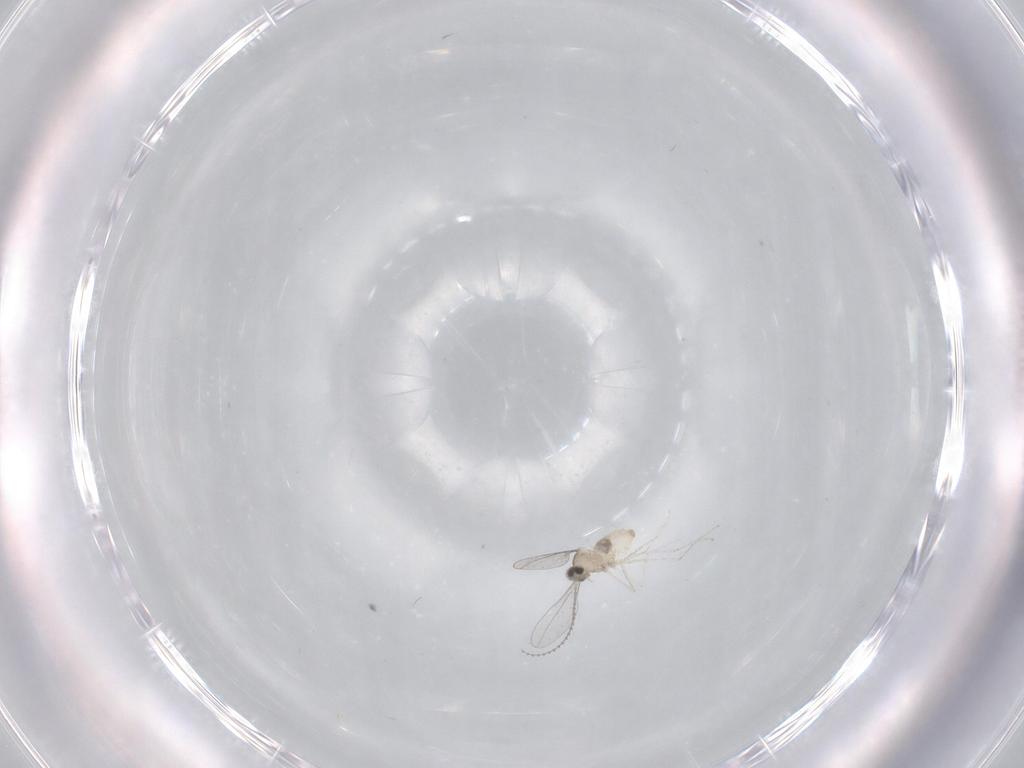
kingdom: Animalia
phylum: Arthropoda
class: Insecta
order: Diptera
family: Cecidomyiidae
